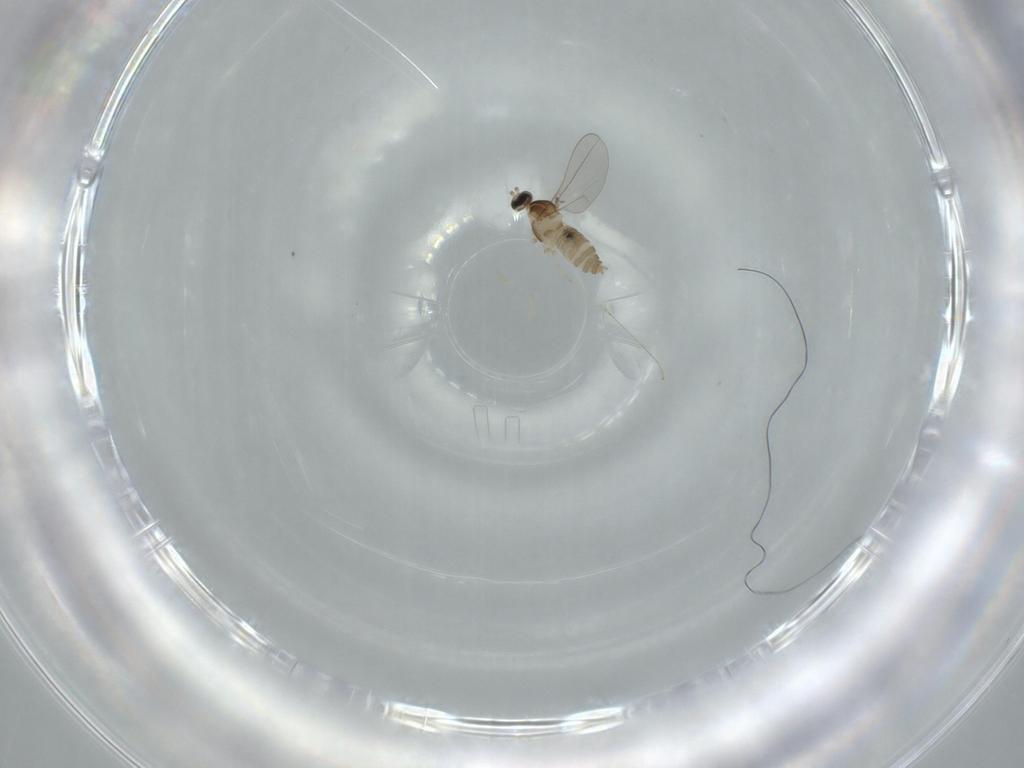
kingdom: Animalia
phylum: Arthropoda
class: Insecta
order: Diptera
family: Cecidomyiidae
